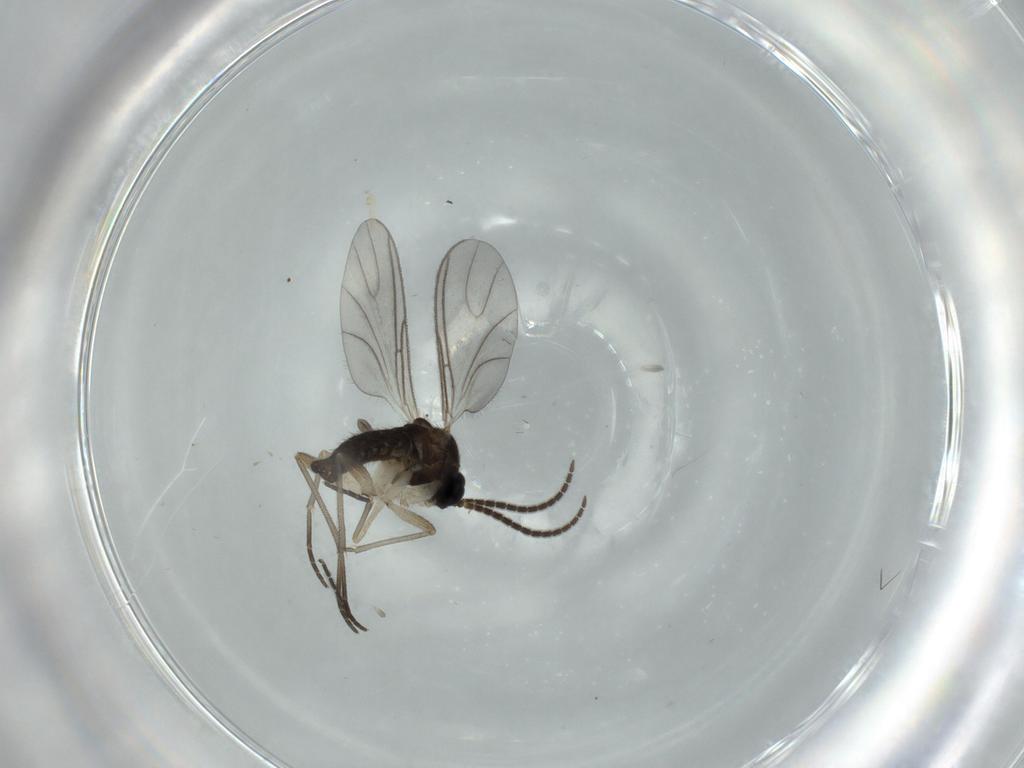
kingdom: Animalia
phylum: Arthropoda
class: Insecta
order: Diptera
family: Sciaridae
